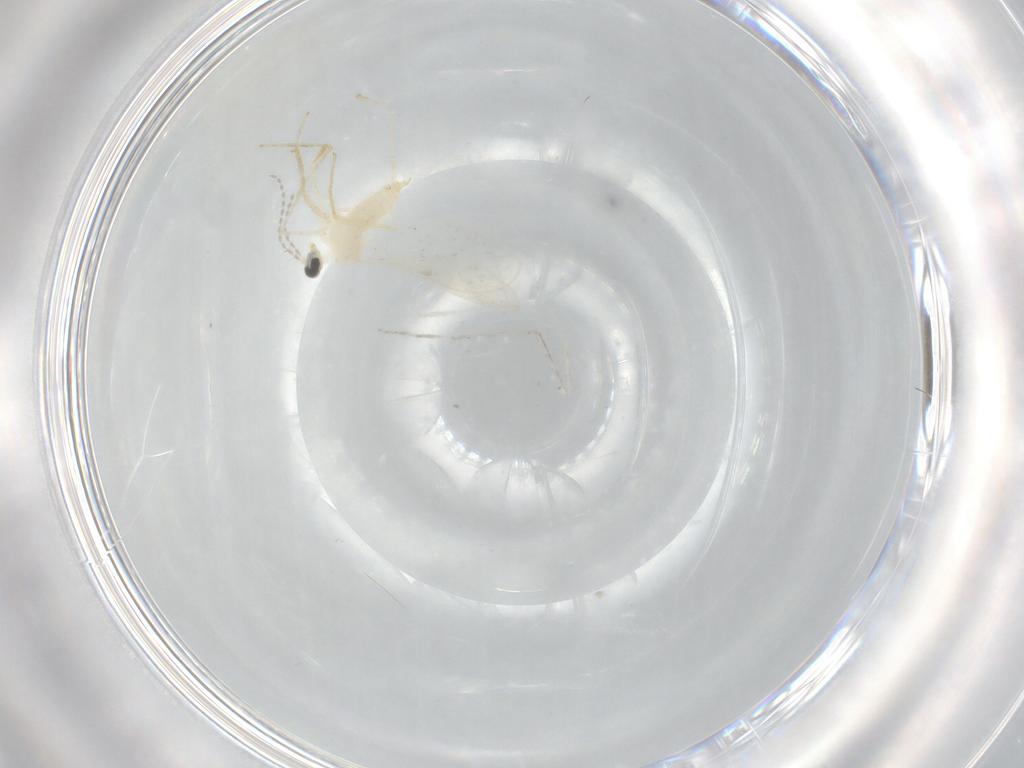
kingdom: Animalia
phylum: Arthropoda
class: Insecta
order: Diptera
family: Cecidomyiidae
